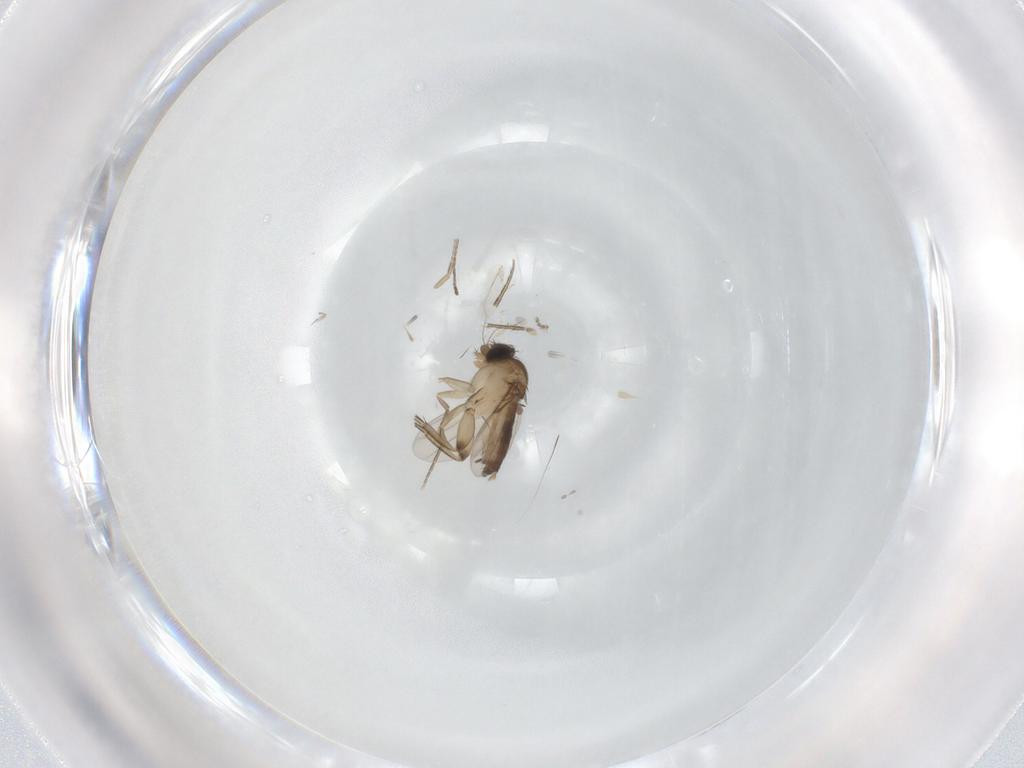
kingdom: Animalia
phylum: Arthropoda
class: Insecta
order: Diptera
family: Phoridae
